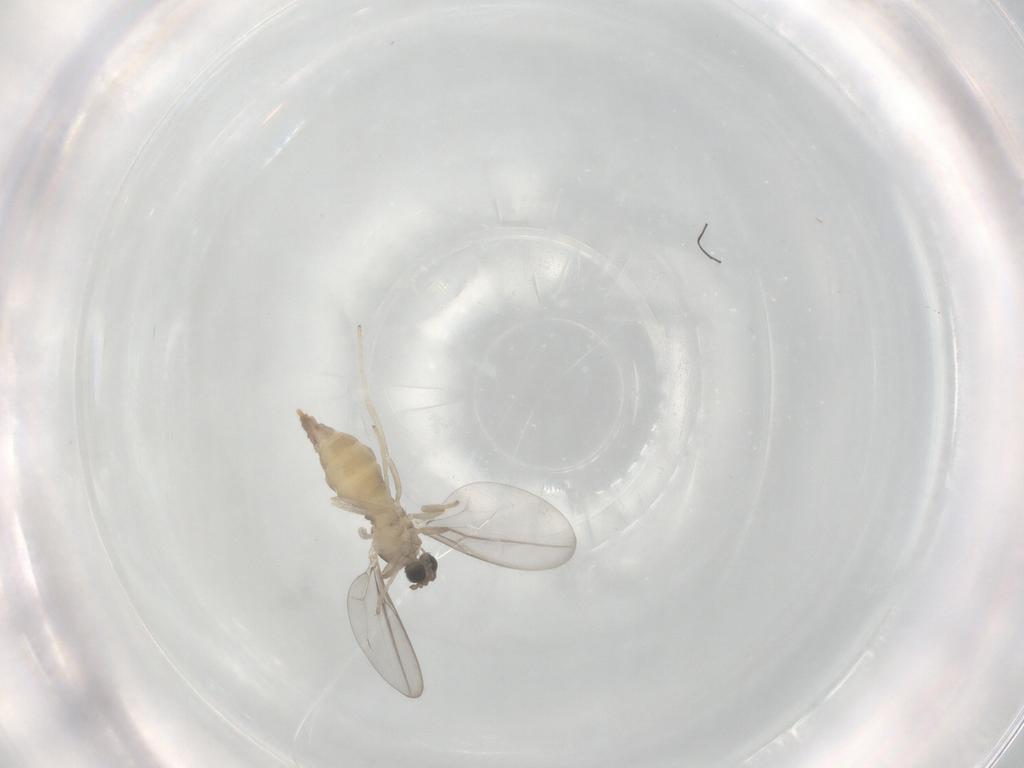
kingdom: Animalia
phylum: Arthropoda
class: Insecta
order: Diptera
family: Cecidomyiidae
